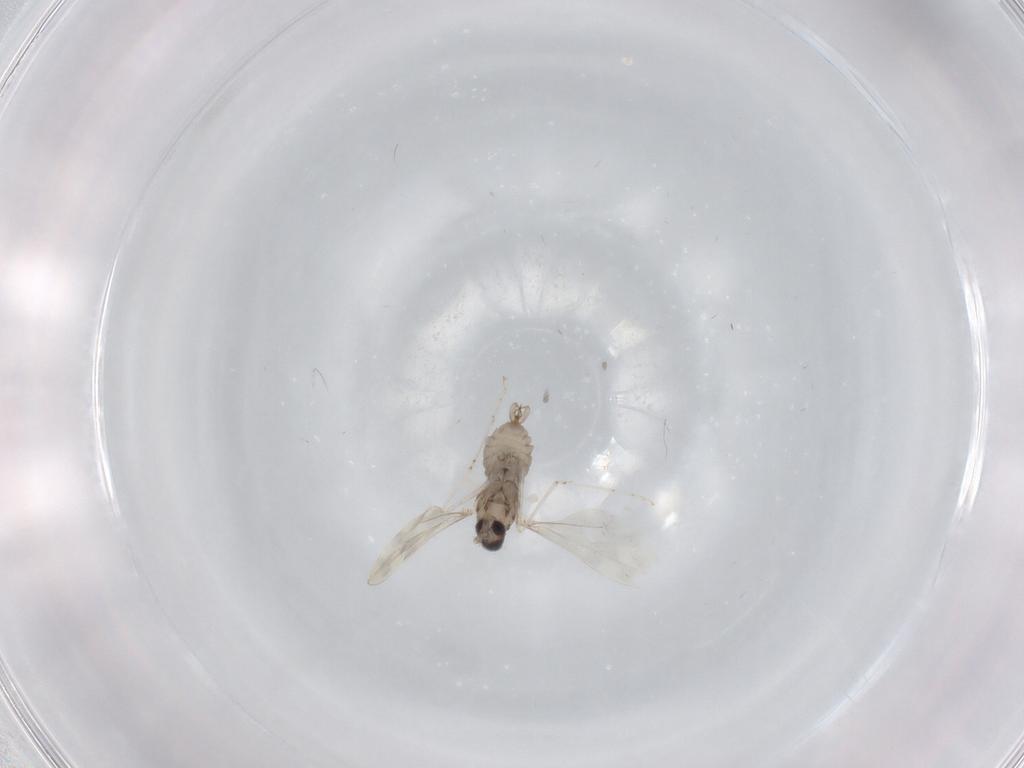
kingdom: Animalia
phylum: Arthropoda
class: Insecta
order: Diptera
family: Cecidomyiidae
